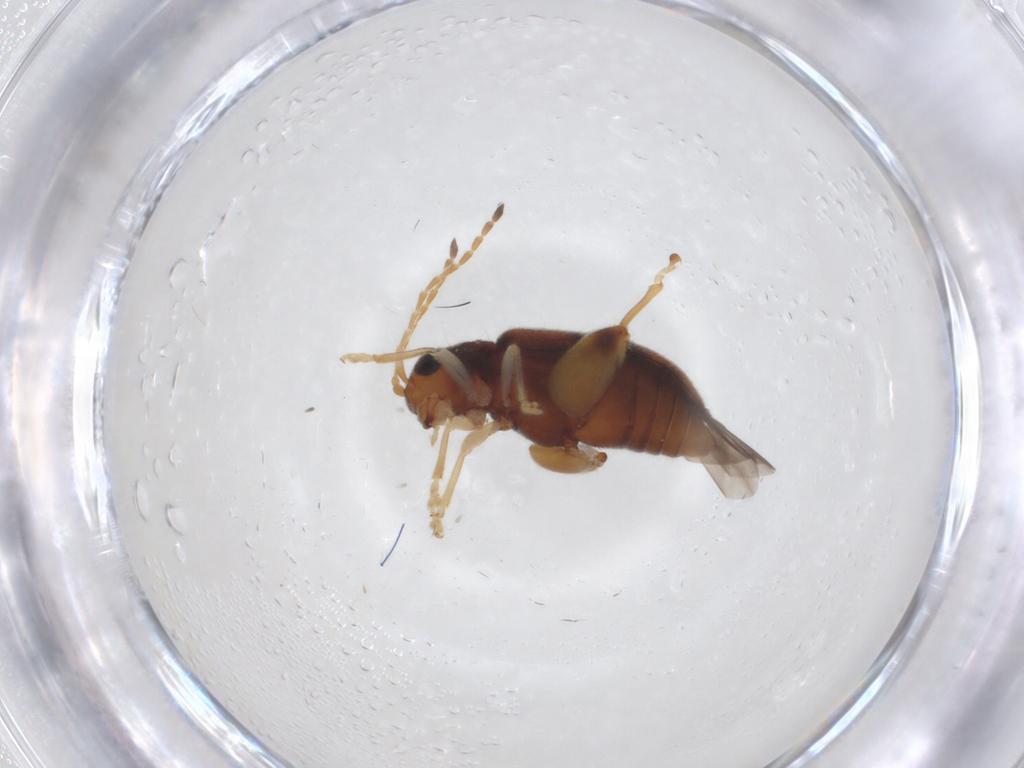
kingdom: Animalia
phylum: Arthropoda
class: Insecta
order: Coleoptera
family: Chrysomelidae
